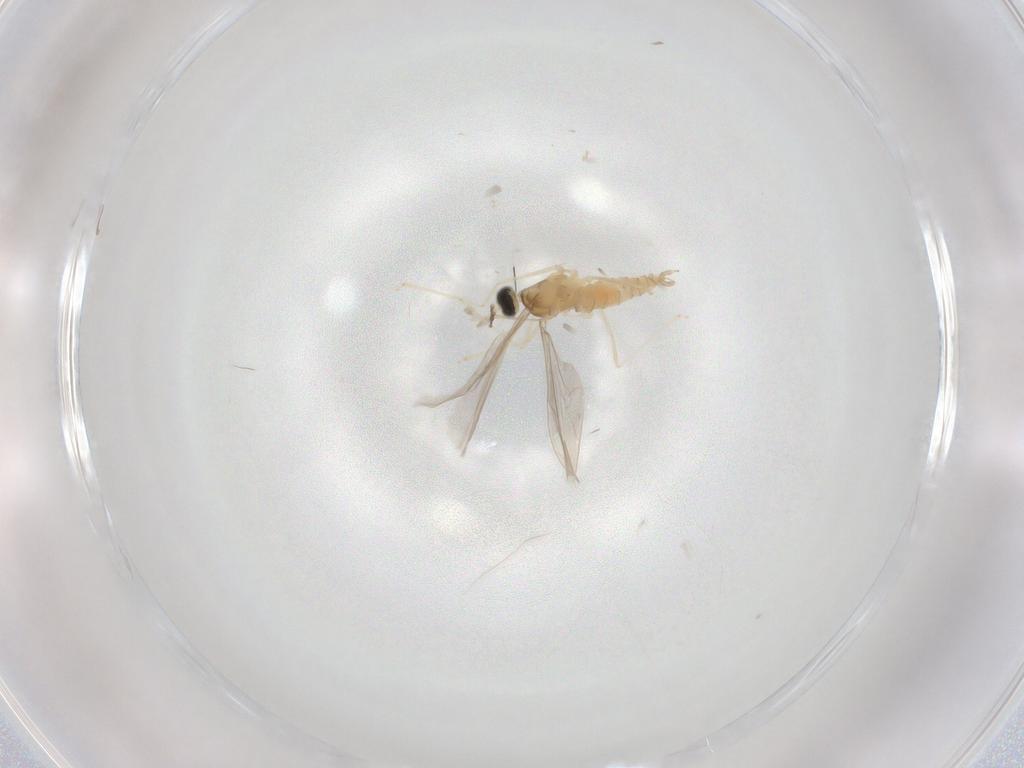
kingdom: Animalia
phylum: Arthropoda
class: Insecta
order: Diptera
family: Cecidomyiidae
